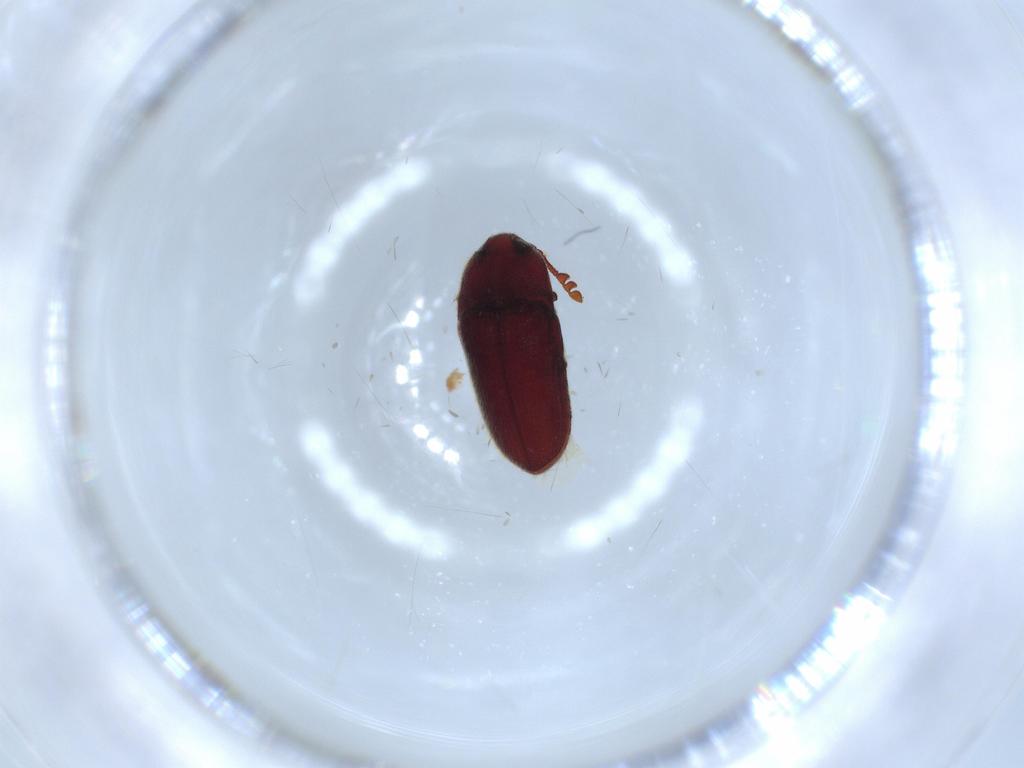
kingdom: Animalia
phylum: Arthropoda
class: Insecta
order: Coleoptera
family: Throscidae
